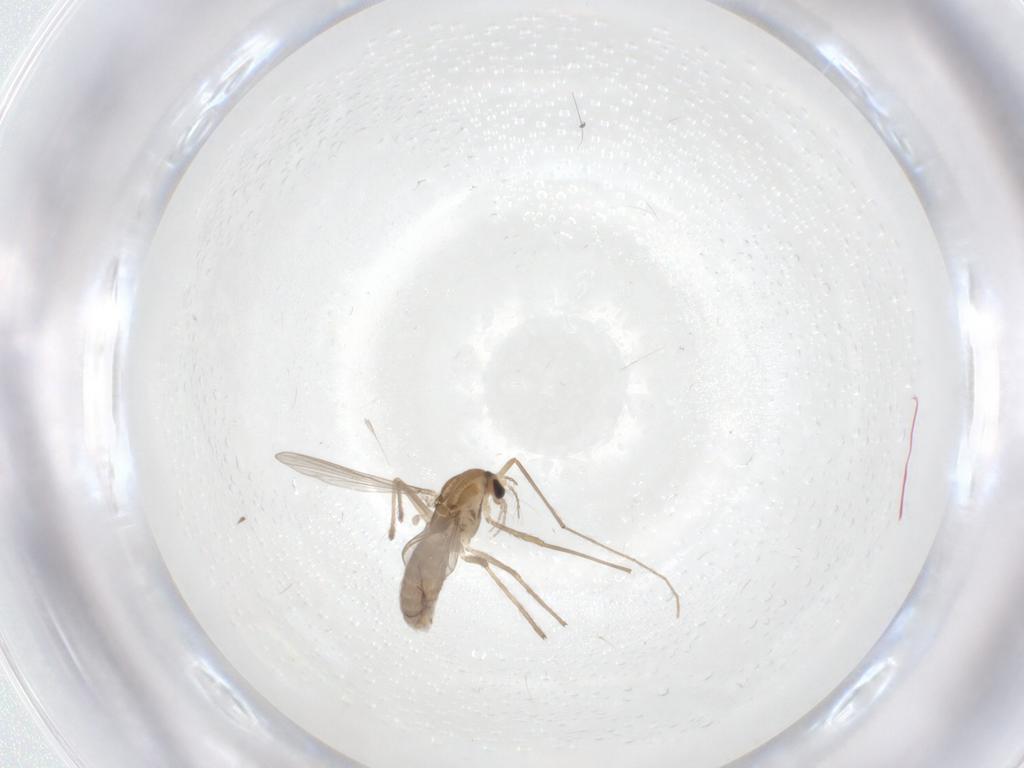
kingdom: Animalia
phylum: Arthropoda
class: Insecta
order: Diptera
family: Chironomidae
